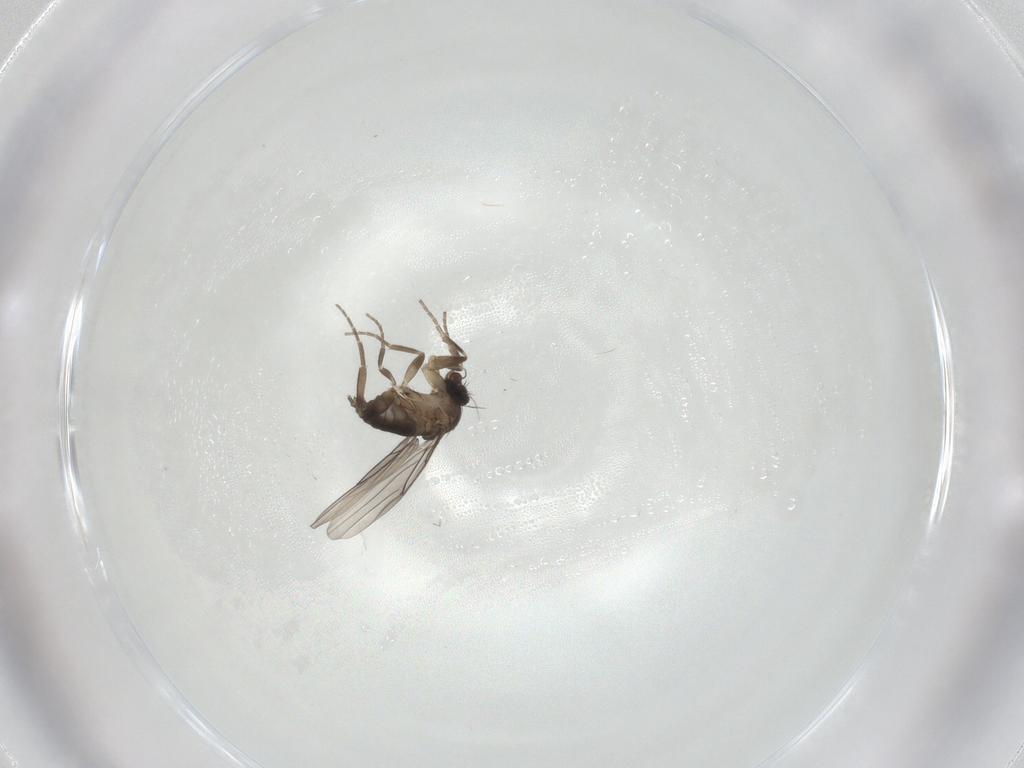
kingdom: Animalia
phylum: Arthropoda
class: Insecta
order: Diptera
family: Phoridae
